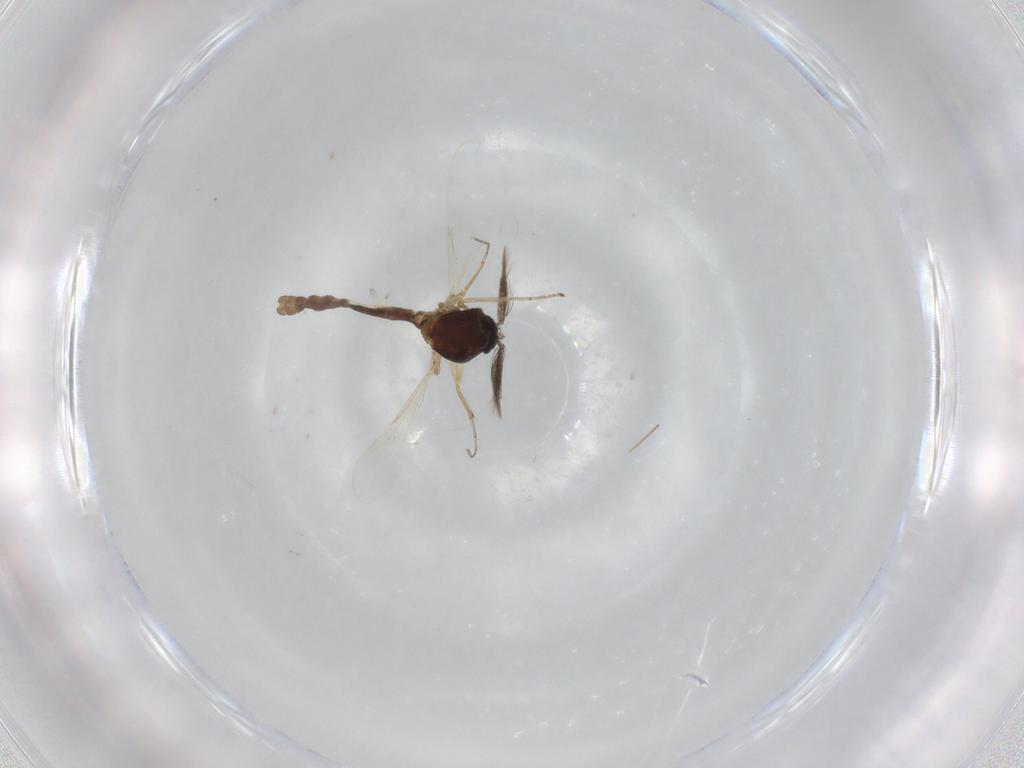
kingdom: Animalia
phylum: Arthropoda
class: Insecta
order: Diptera
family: Ceratopogonidae
